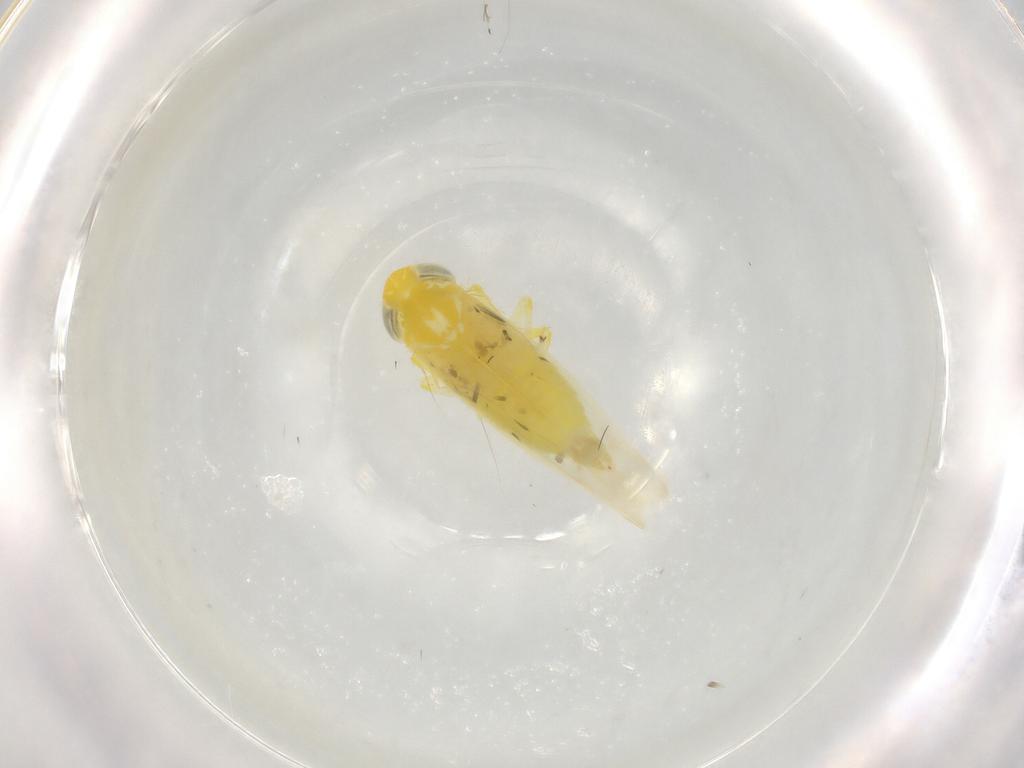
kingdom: Animalia
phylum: Arthropoda
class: Insecta
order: Hemiptera
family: Cicadellidae
